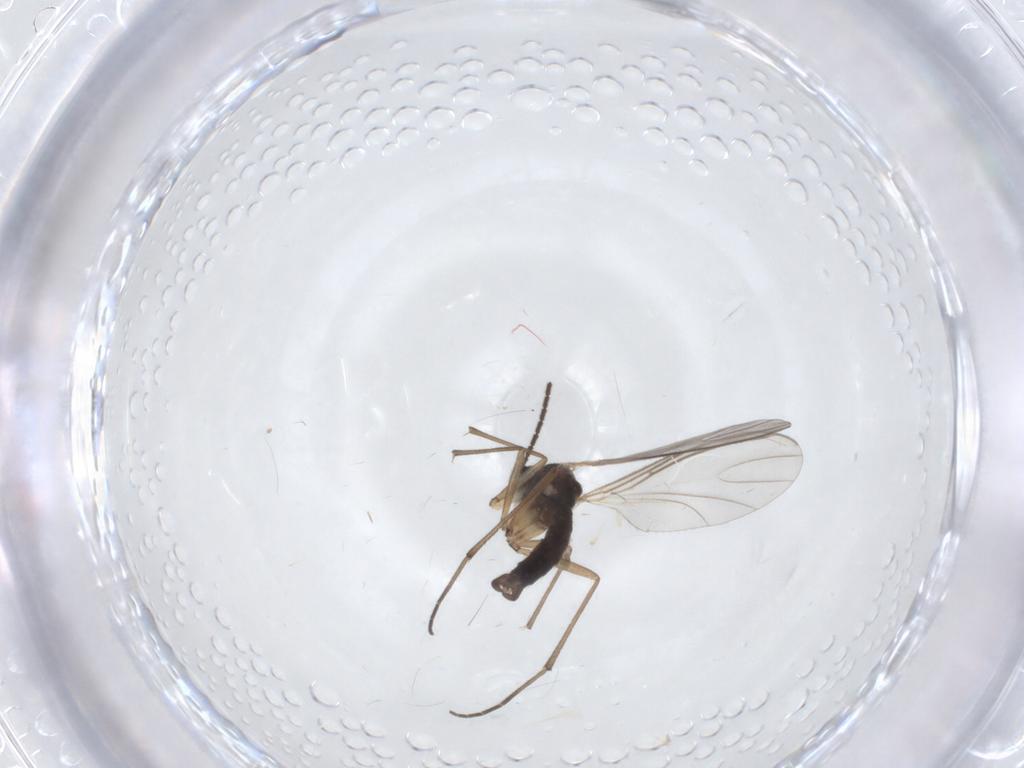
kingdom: Animalia
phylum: Arthropoda
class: Insecta
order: Diptera
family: Sciaridae
